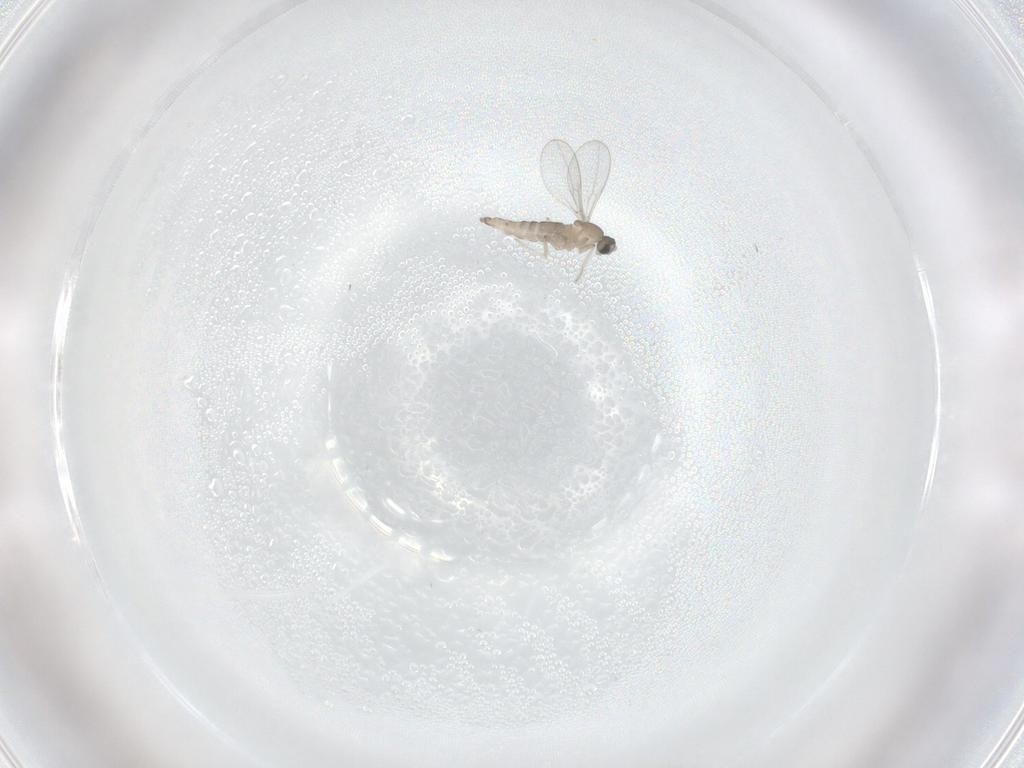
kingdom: Animalia
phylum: Arthropoda
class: Insecta
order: Diptera
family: Cecidomyiidae
